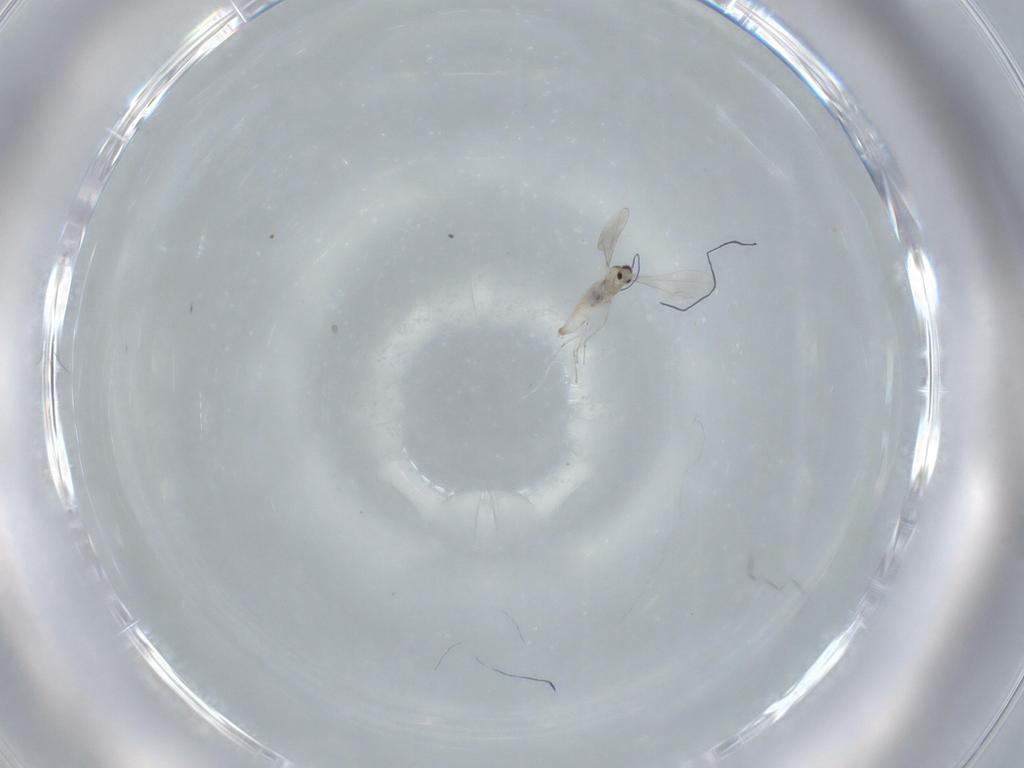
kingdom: Animalia
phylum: Arthropoda
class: Insecta
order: Diptera
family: Cecidomyiidae
